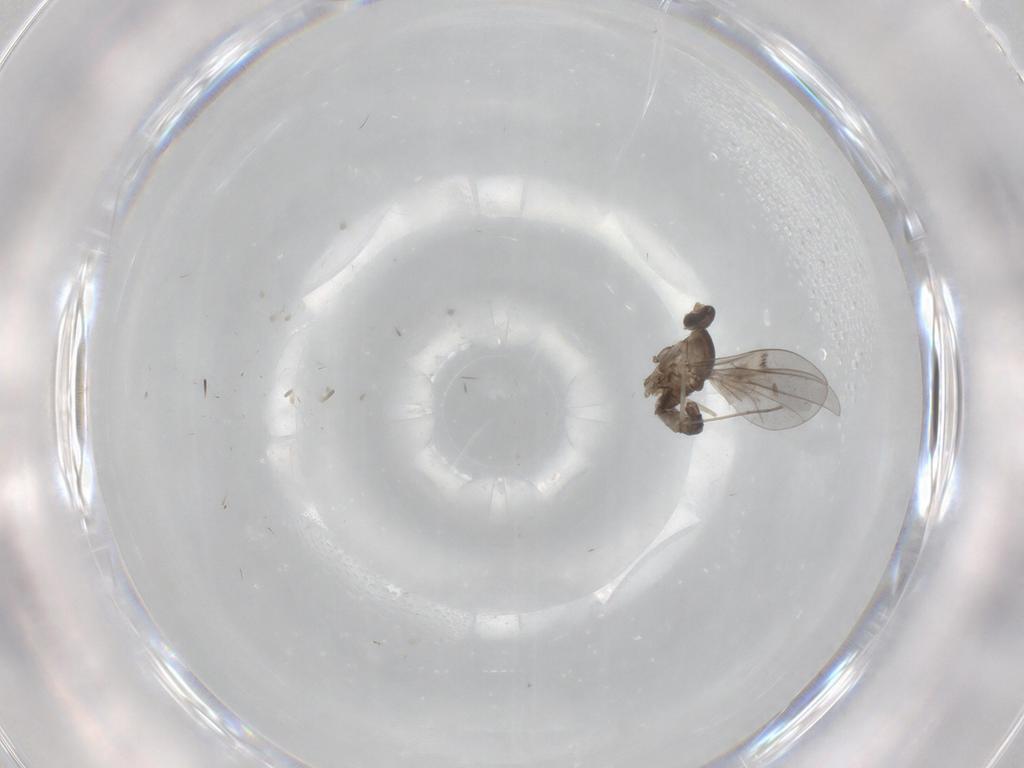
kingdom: Animalia
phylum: Arthropoda
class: Insecta
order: Diptera
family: Cecidomyiidae
